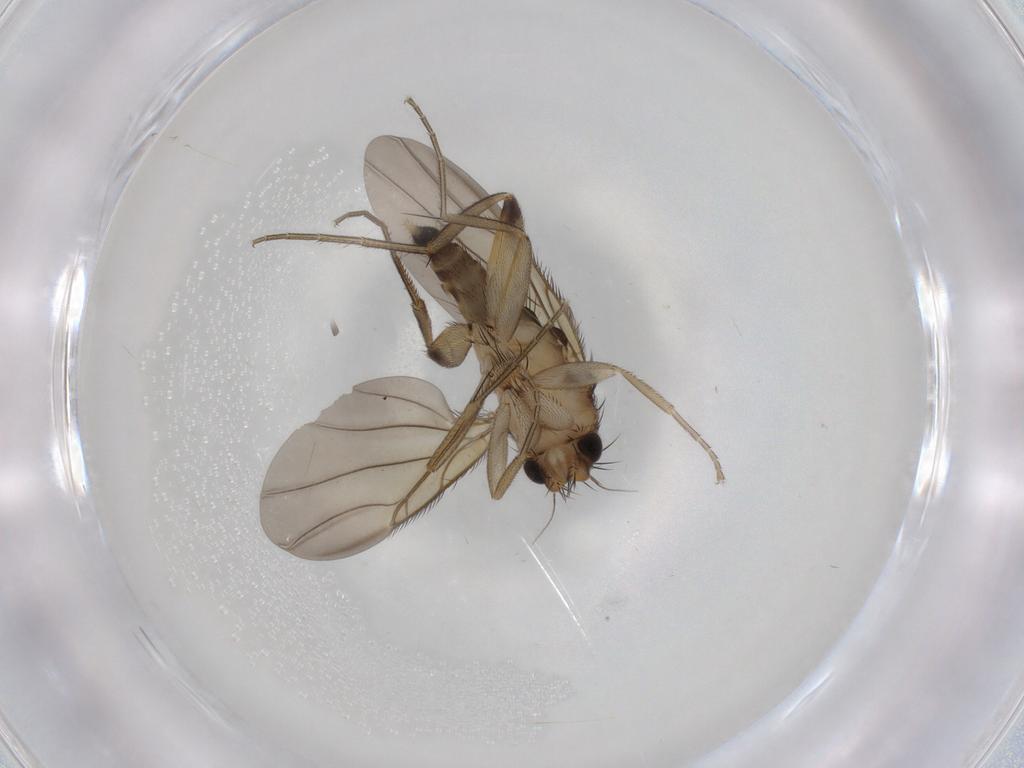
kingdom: Animalia
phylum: Arthropoda
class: Insecta
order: Diptera
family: Phoridae
